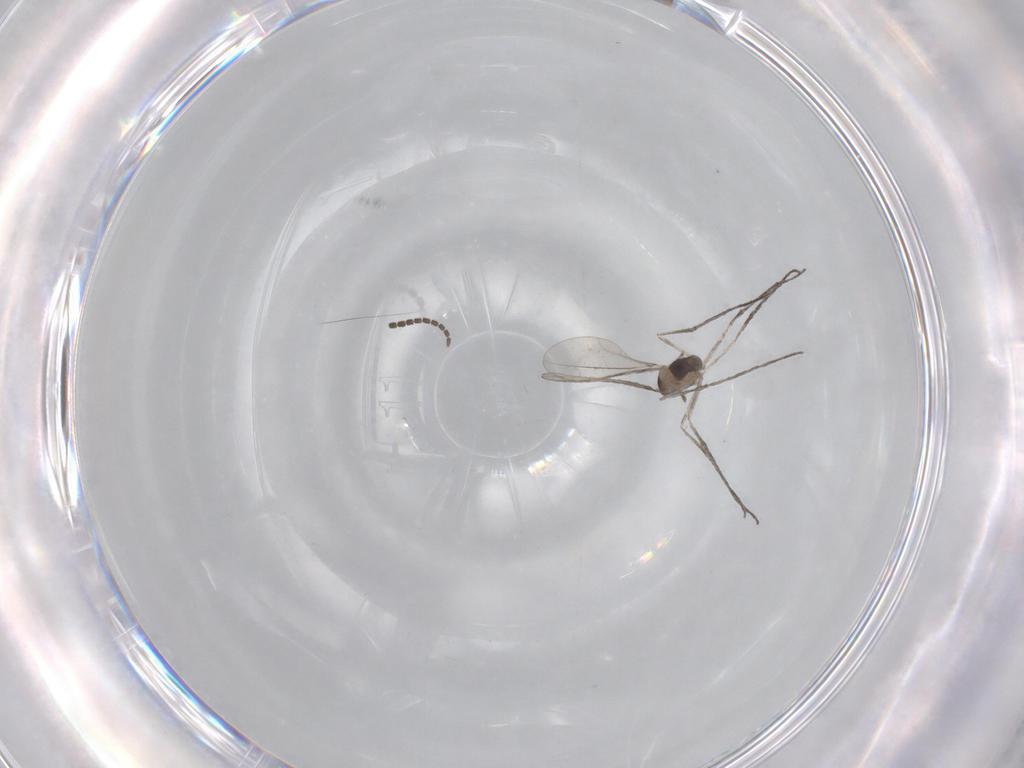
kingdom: Animalia
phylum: Arthropoda
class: Insecta
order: Diptera
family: Sciaridae
